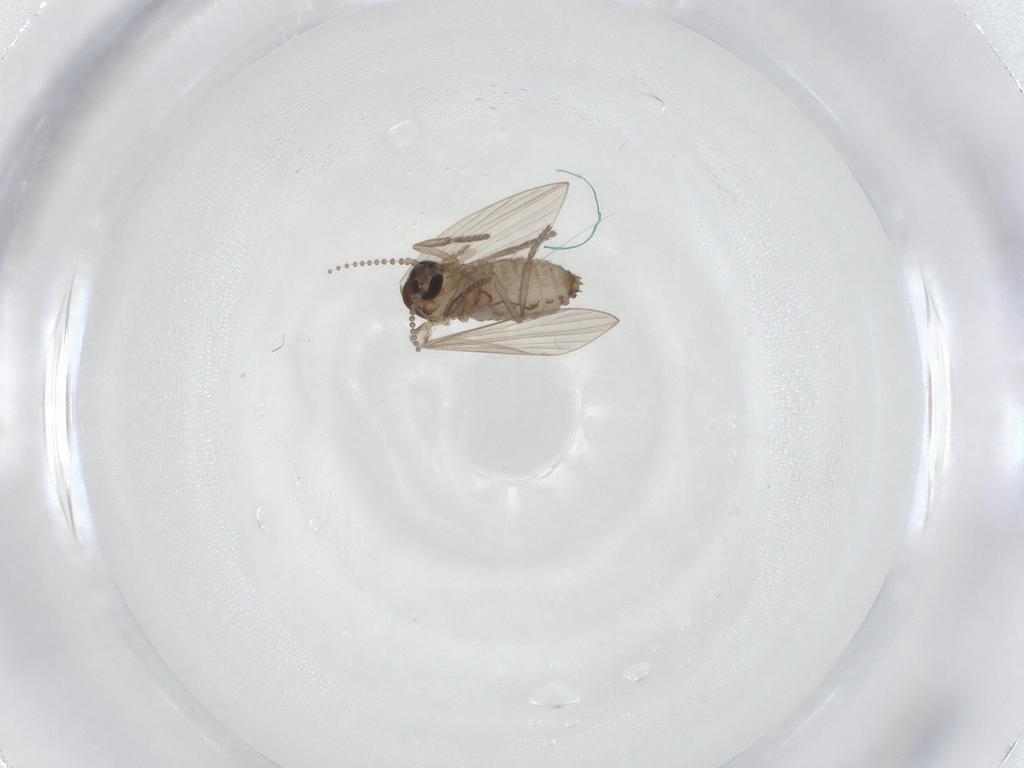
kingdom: Animalia
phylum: Arthropoda
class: Insecta
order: Diptera
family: Psychodidae
